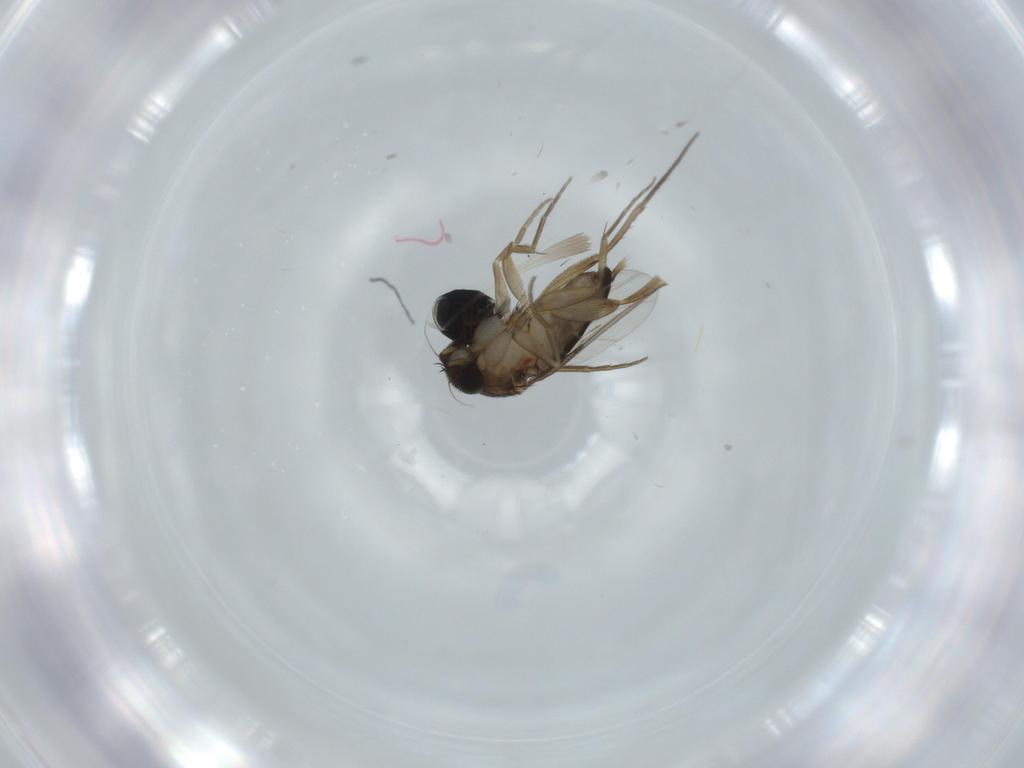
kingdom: Animalia
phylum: Arthropoda
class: Insecta
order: Diptera
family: Phoridae
